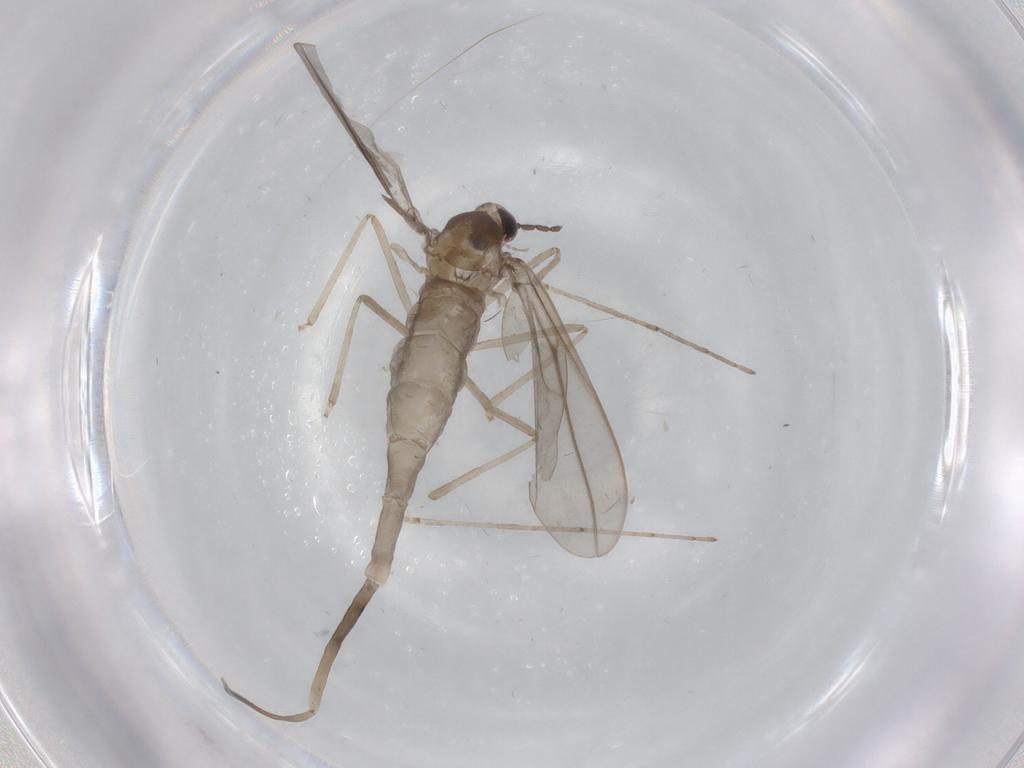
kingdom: Animalia
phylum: Arthropoda
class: Insecta
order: Diptera
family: Cecidomyiidae
